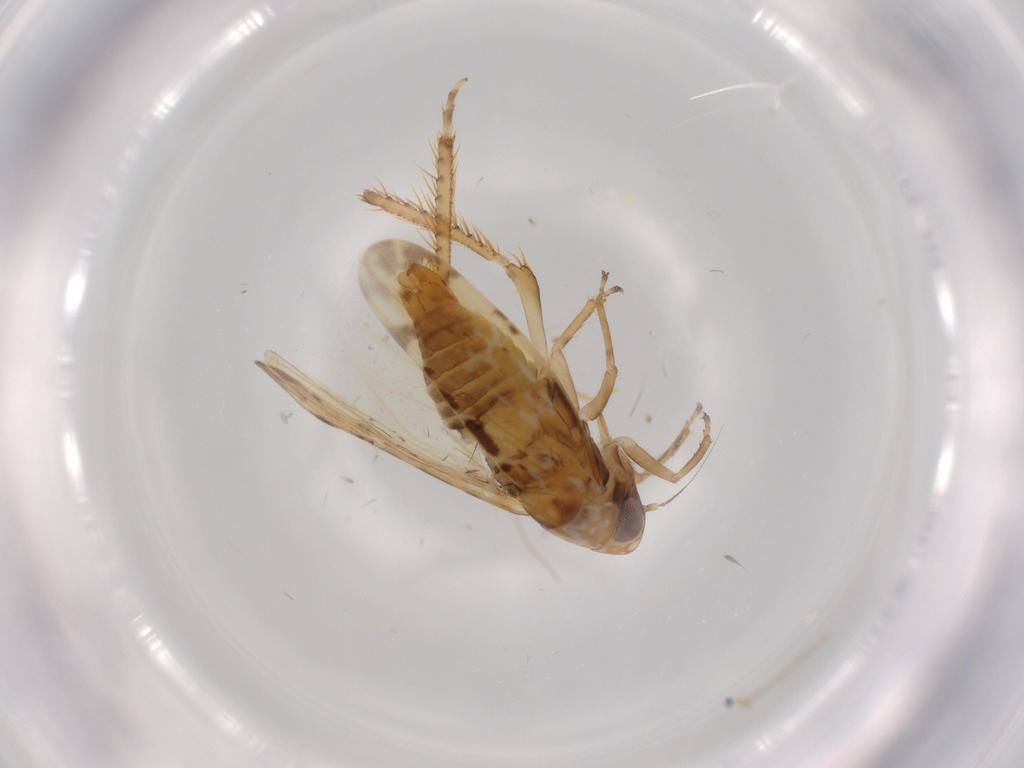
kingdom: Animalia
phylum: Arthropoda
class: Insecta
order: Hemiptera
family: Cicadellidae
